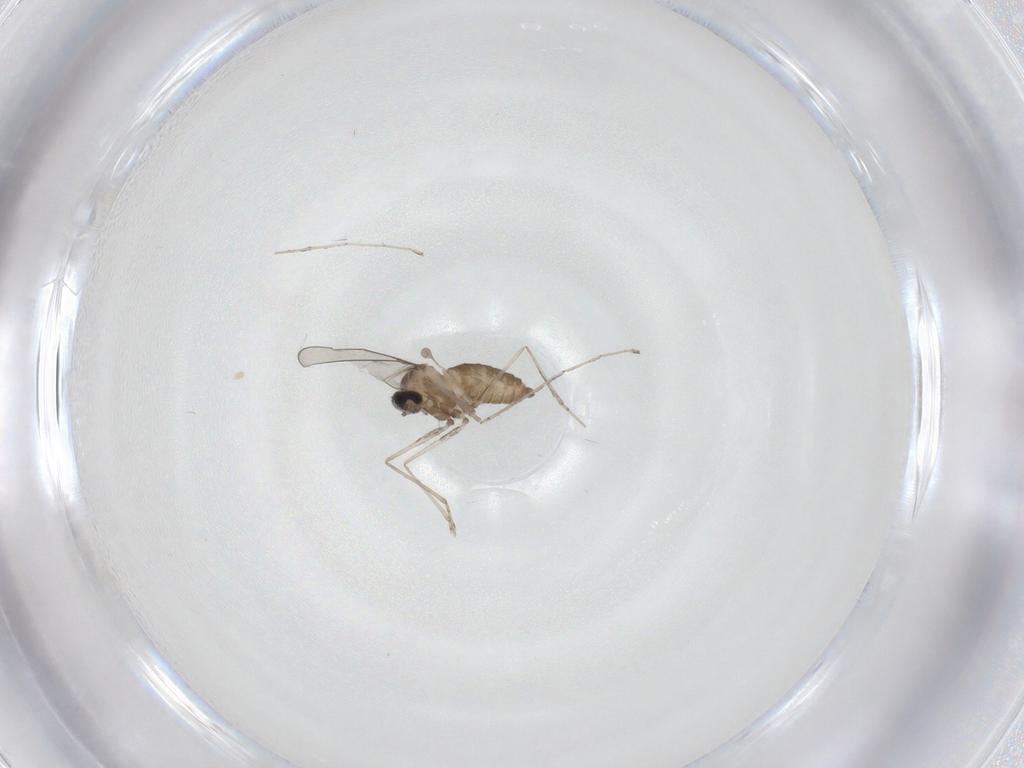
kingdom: Animalia
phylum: Arthropoda
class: Insecta
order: Diptera
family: Cecidomyiidae
